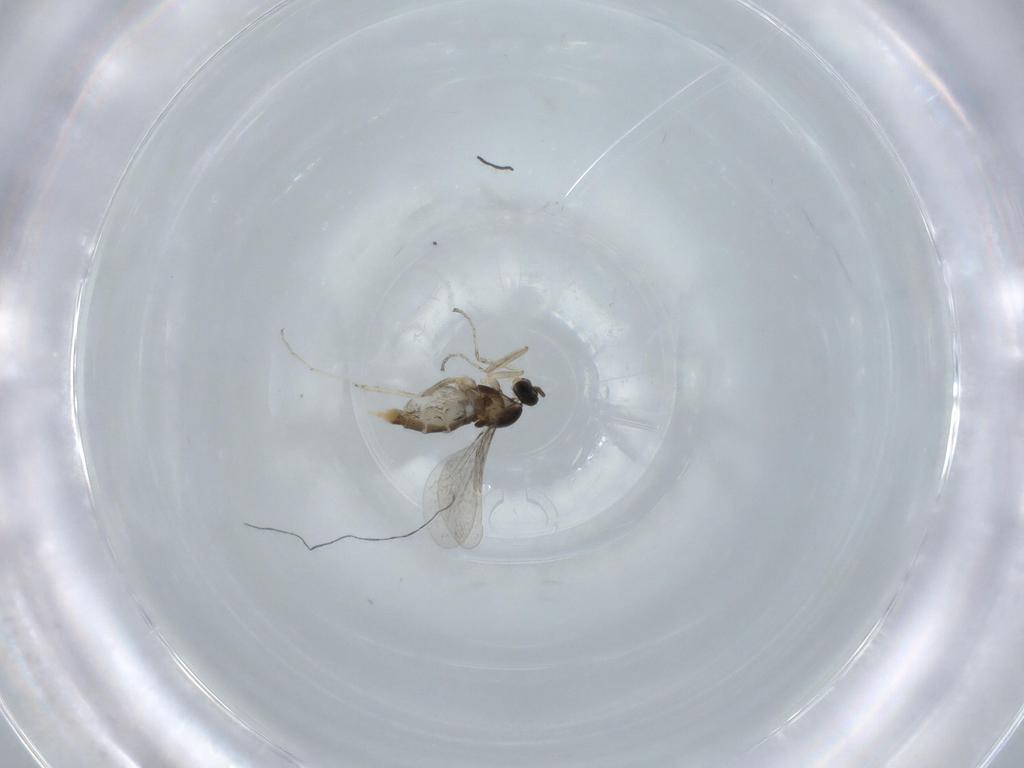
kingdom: Animalia
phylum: Arthropoda
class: Insecta
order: Diptera
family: Cecidomyiidae
